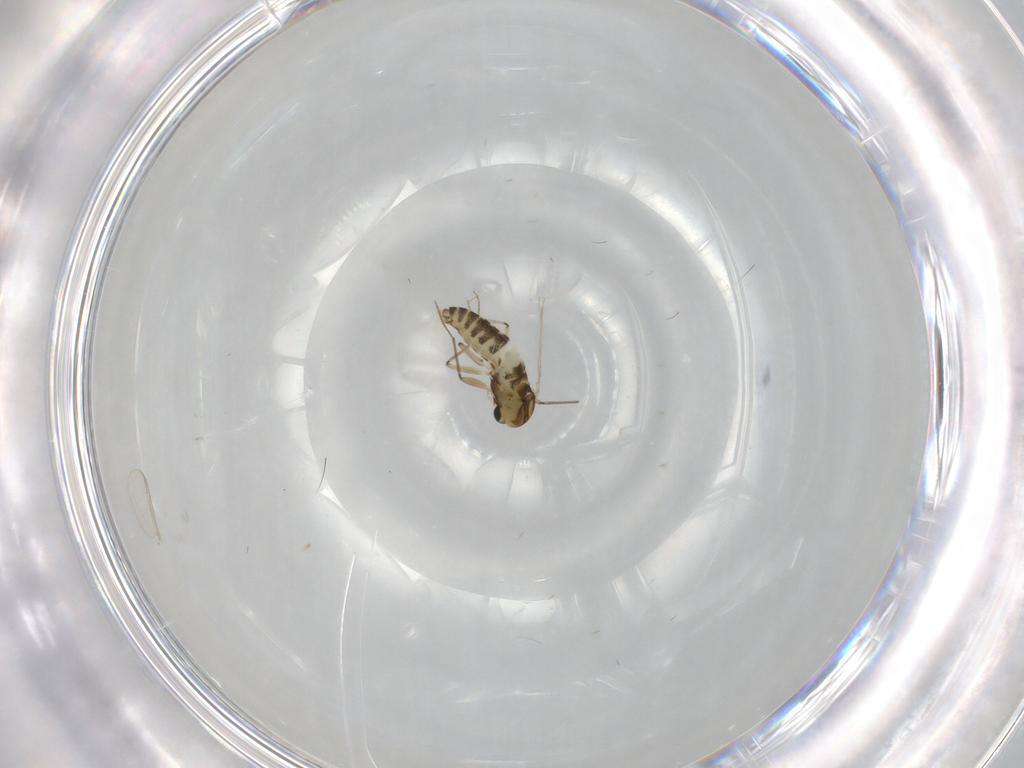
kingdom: Animalia
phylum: Arthropoda
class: Insecta
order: Diptera
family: Chironomidae
